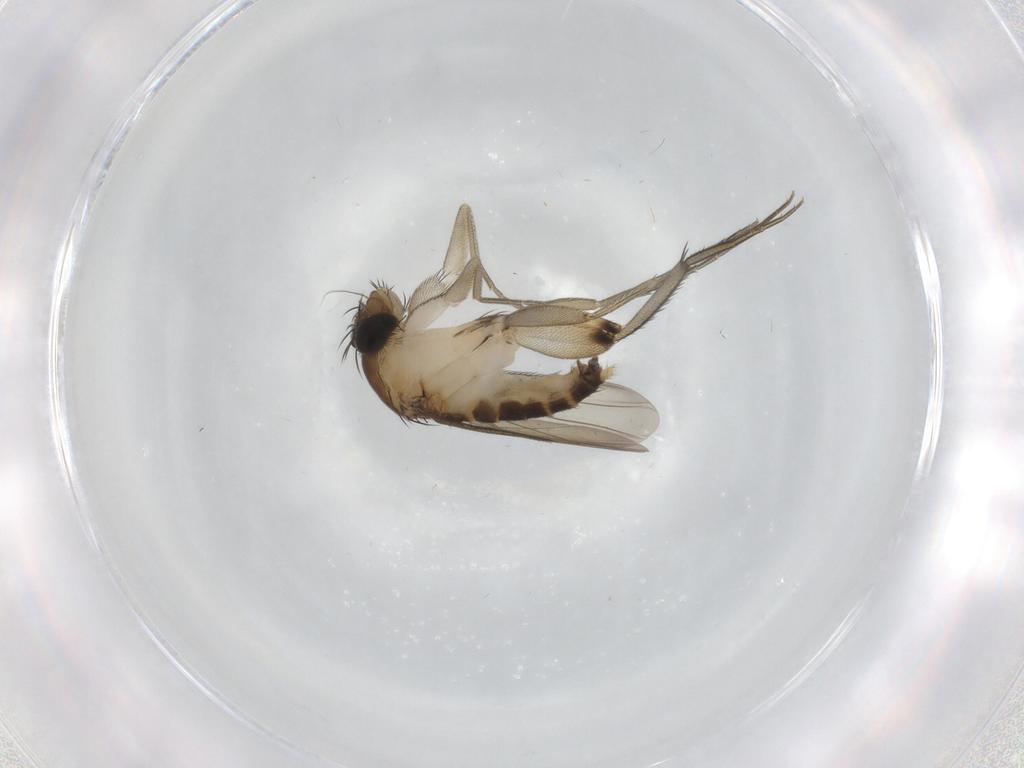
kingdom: Animalia
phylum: Arthropoda
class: Insecta
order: Diptera
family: Phoridae
